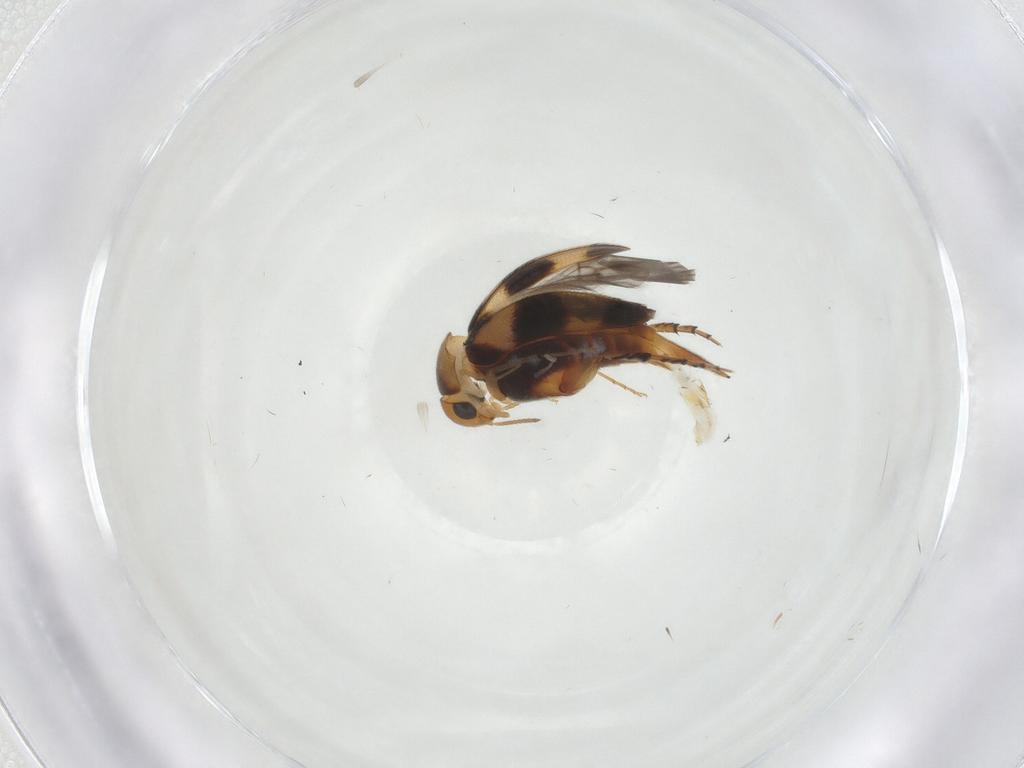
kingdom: Animalia
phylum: Arthropoda
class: Insecta
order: Coleoptera
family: Mordellidae
